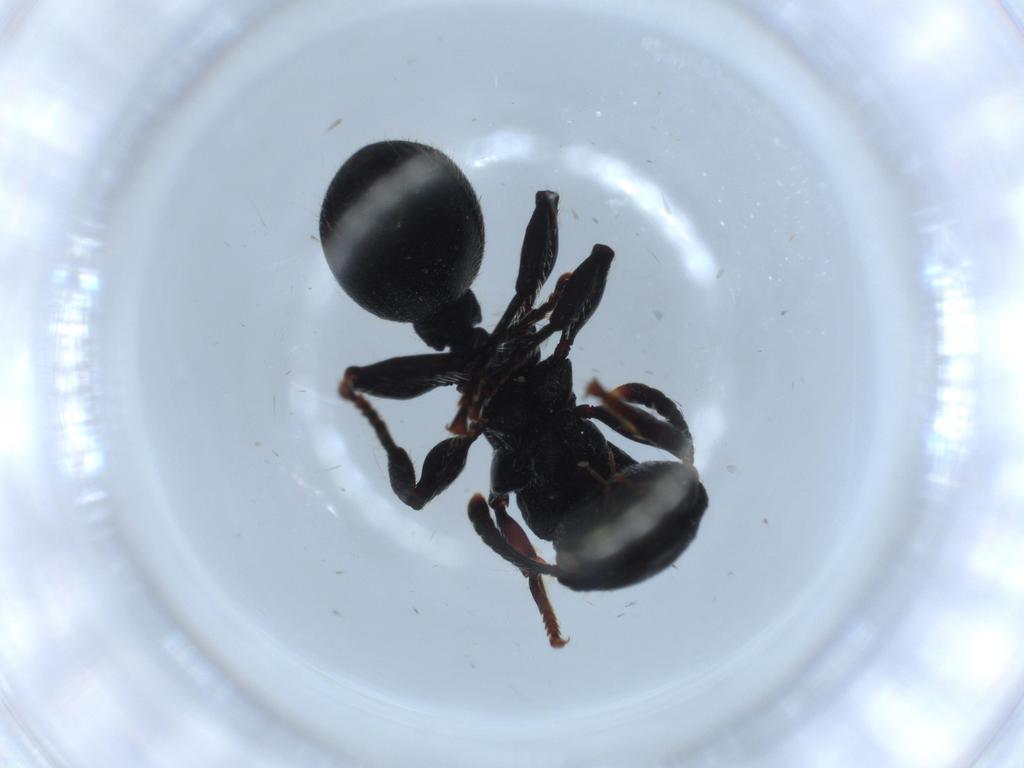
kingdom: Animalia
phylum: Arthropoda
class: Insecta
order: Hymenoptera
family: Formicidae
